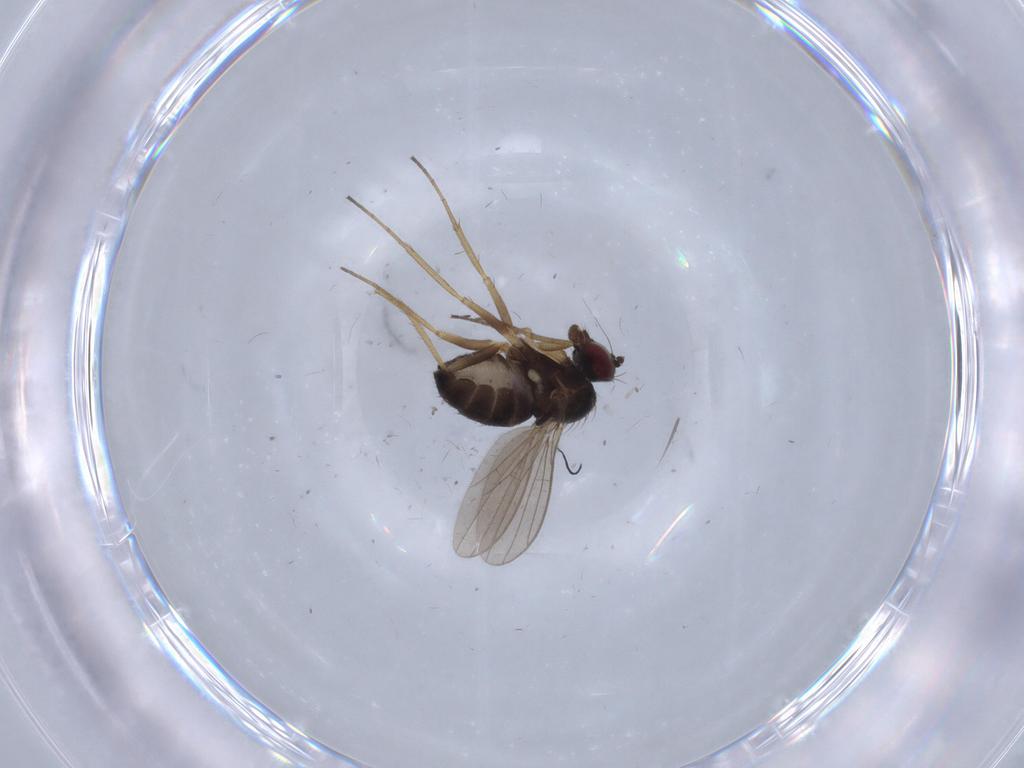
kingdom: Animalia
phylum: Arthropoda
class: Insecta
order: Diptera
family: Dolichopodidae
